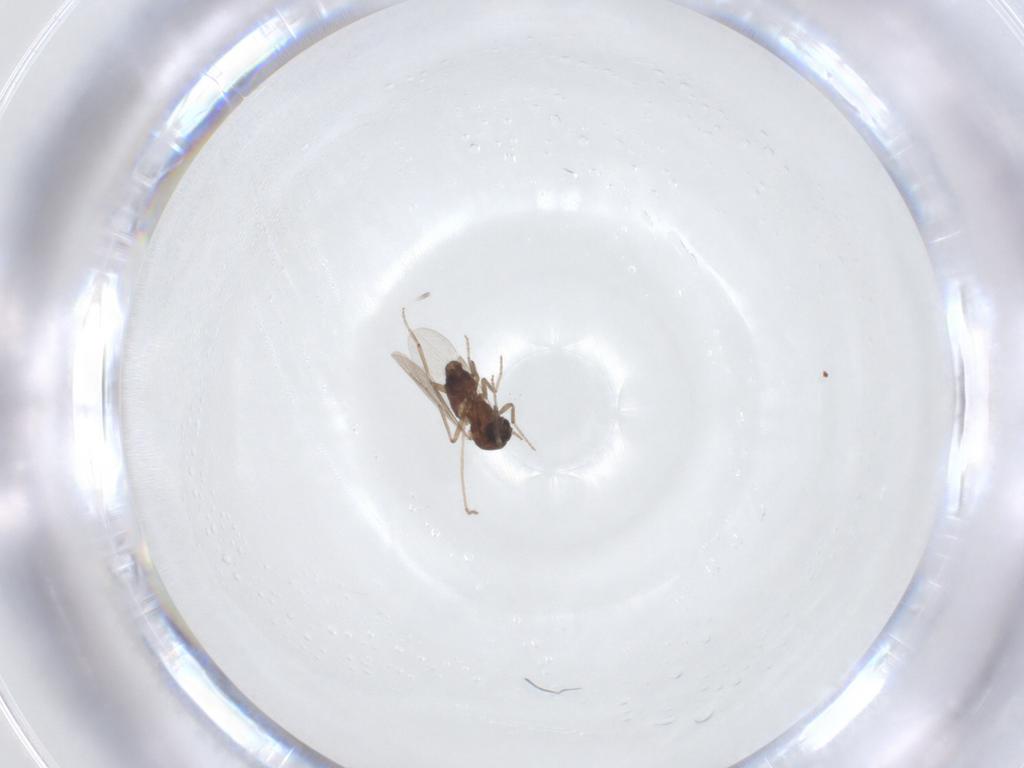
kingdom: Animalia
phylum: Arthropoda
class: Insecta
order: Diptera
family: Ceratopogonidae
